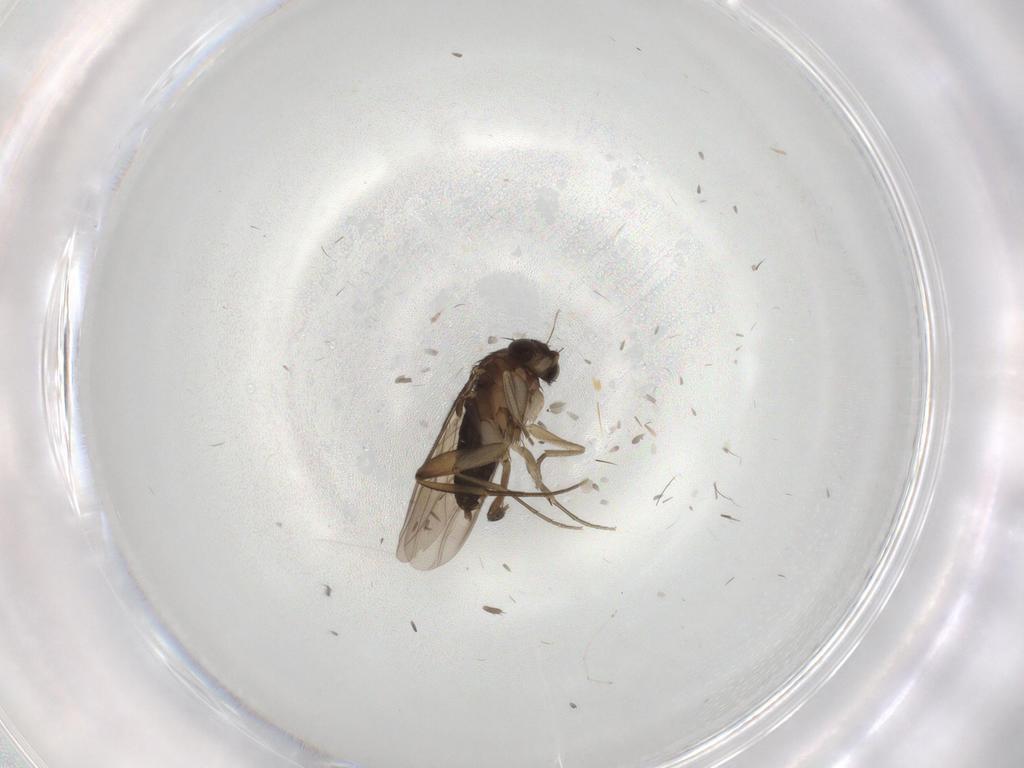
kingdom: Animalia
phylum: Arthropoda
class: Insecta
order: Diptera
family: Phoridae
